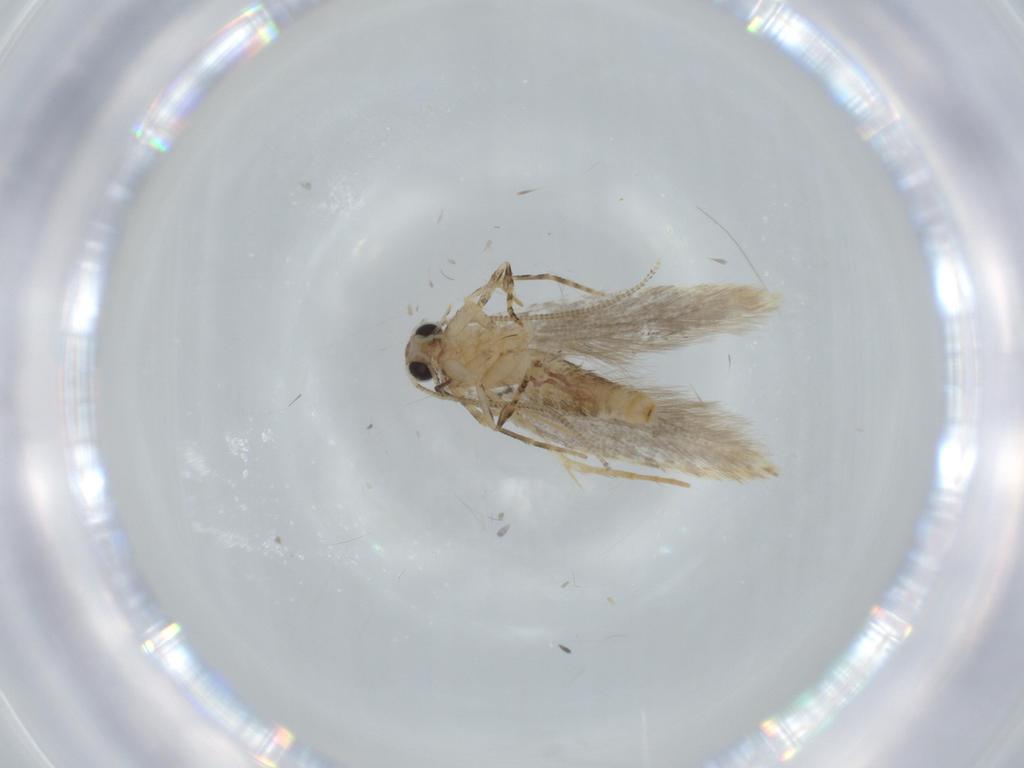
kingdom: Animalia
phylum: Arthropoda
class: Insecta
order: Lepidoptera
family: Tineidae
